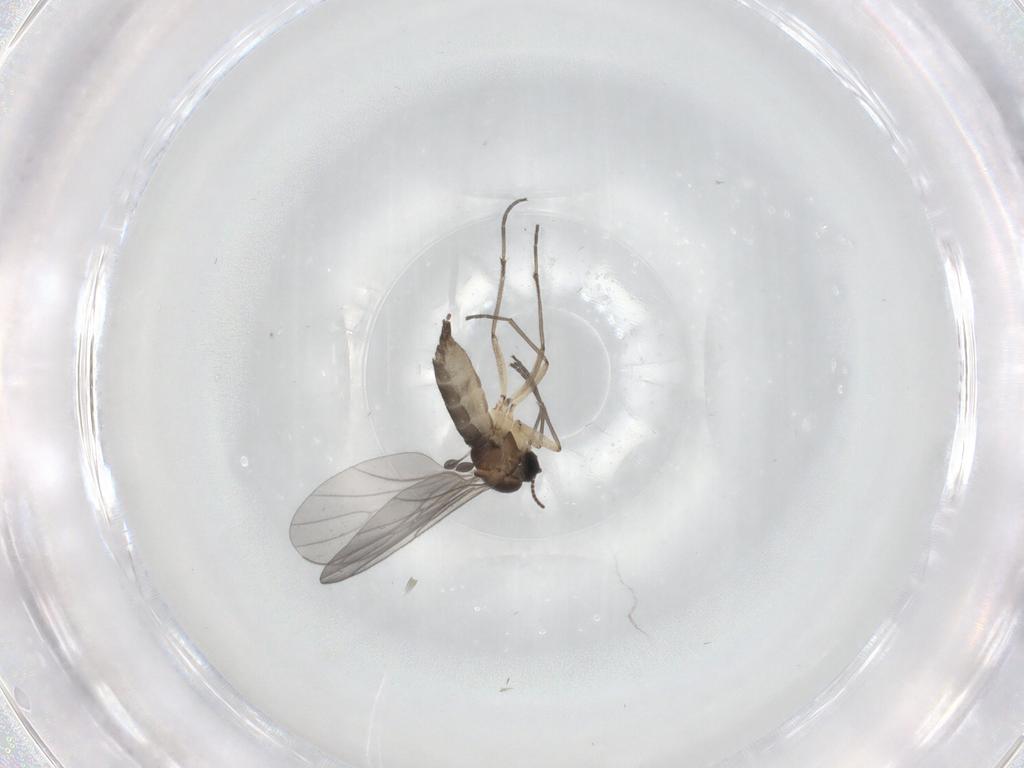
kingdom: Animalia
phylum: Arthropoda
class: Insecta
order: Diptera
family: Sciaridae
